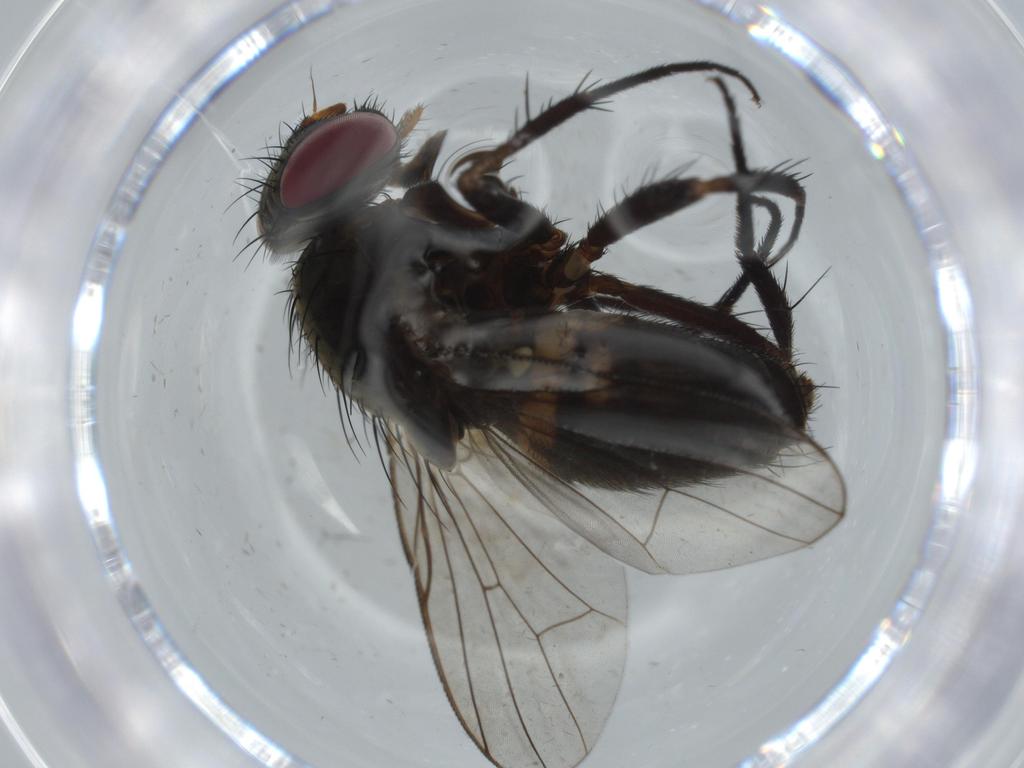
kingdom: Animalia
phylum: Arthropoda
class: Insecta
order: Diptera
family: Cecidomyiidae
